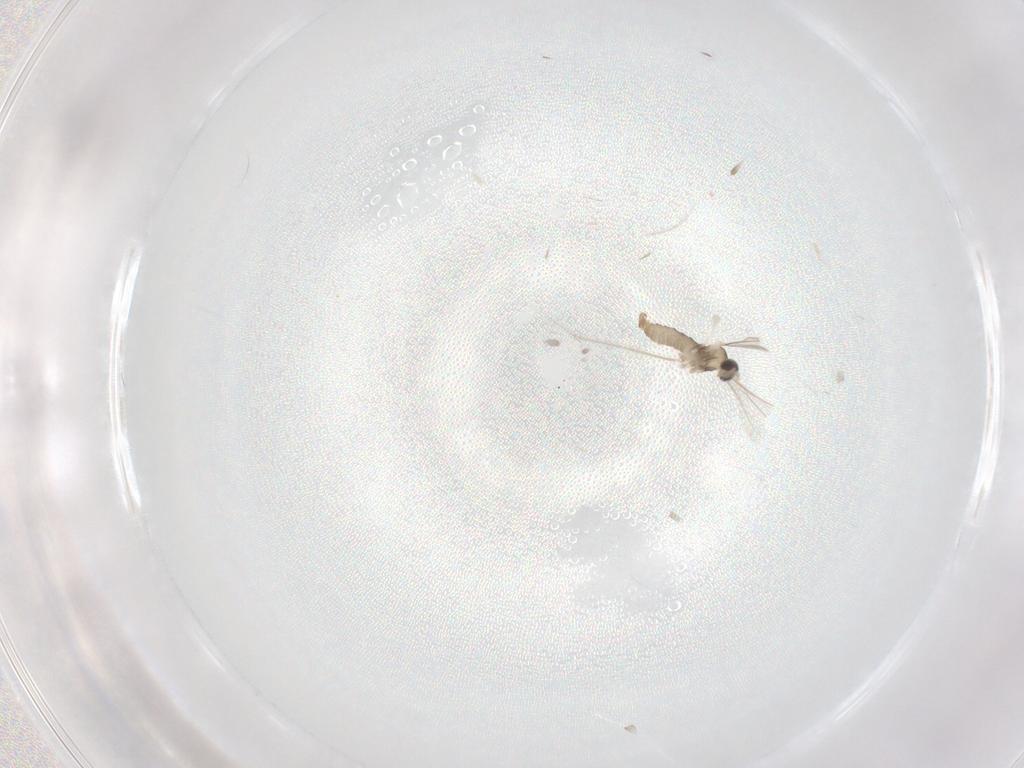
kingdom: Animalia
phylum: Arthropoda
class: Insecta
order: Diptera
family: Cecidomyiidae
